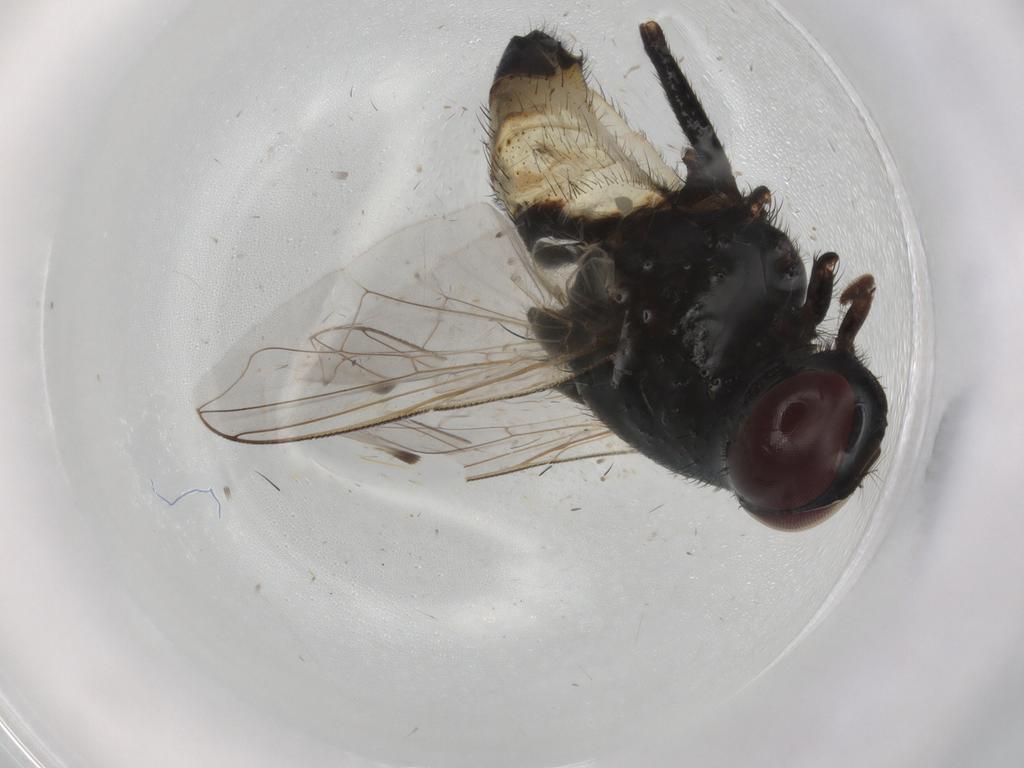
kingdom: Animalia
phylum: Arthropoda
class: Insecta
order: Diptera
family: Muscidae
